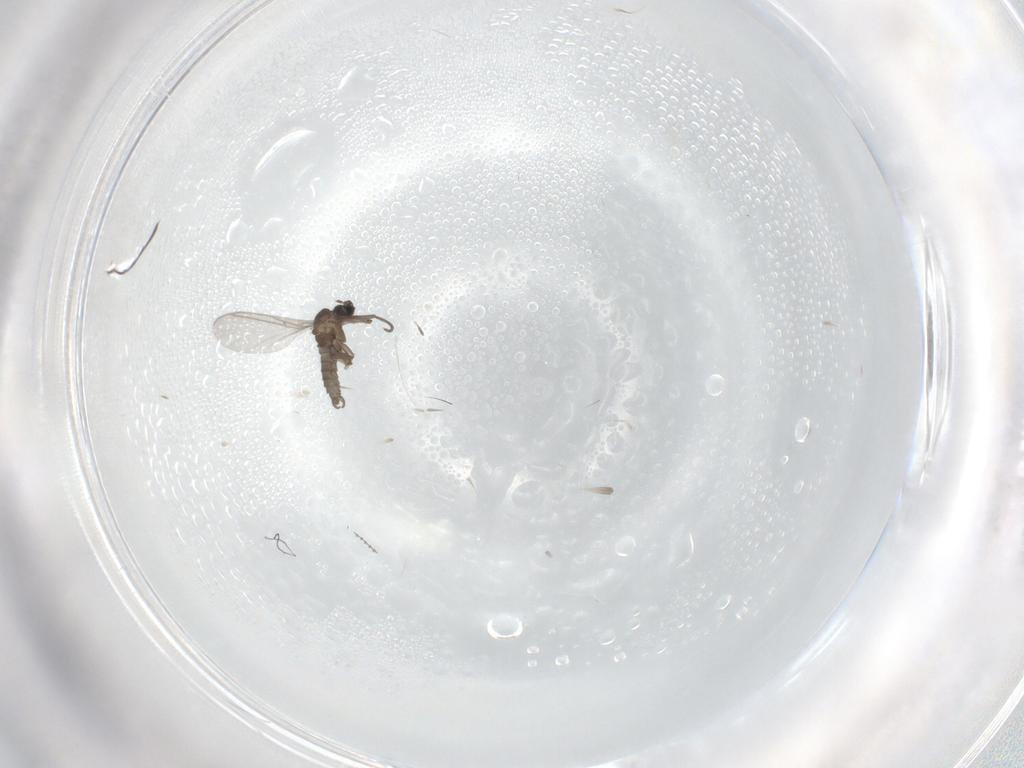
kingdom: Animalia
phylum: Arthropoda
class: Insecta
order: Diptera
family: Sciaridae
